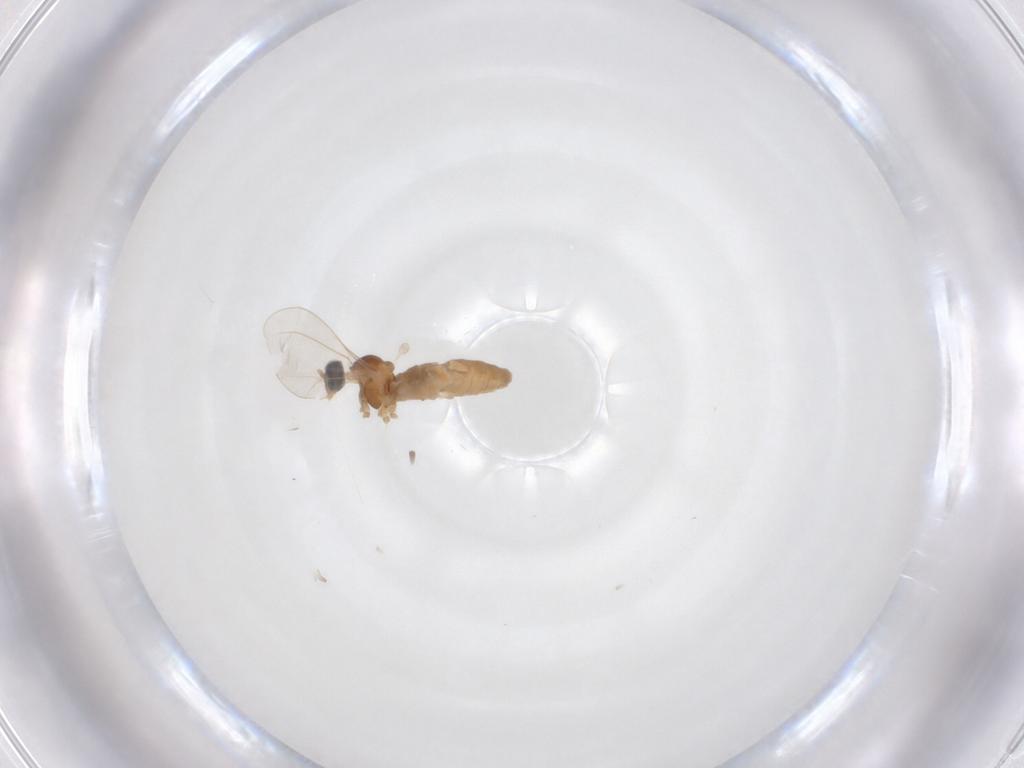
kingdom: Animalia
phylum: Arthropoda
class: Insecta
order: Diptera
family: Cecidomyiidae
